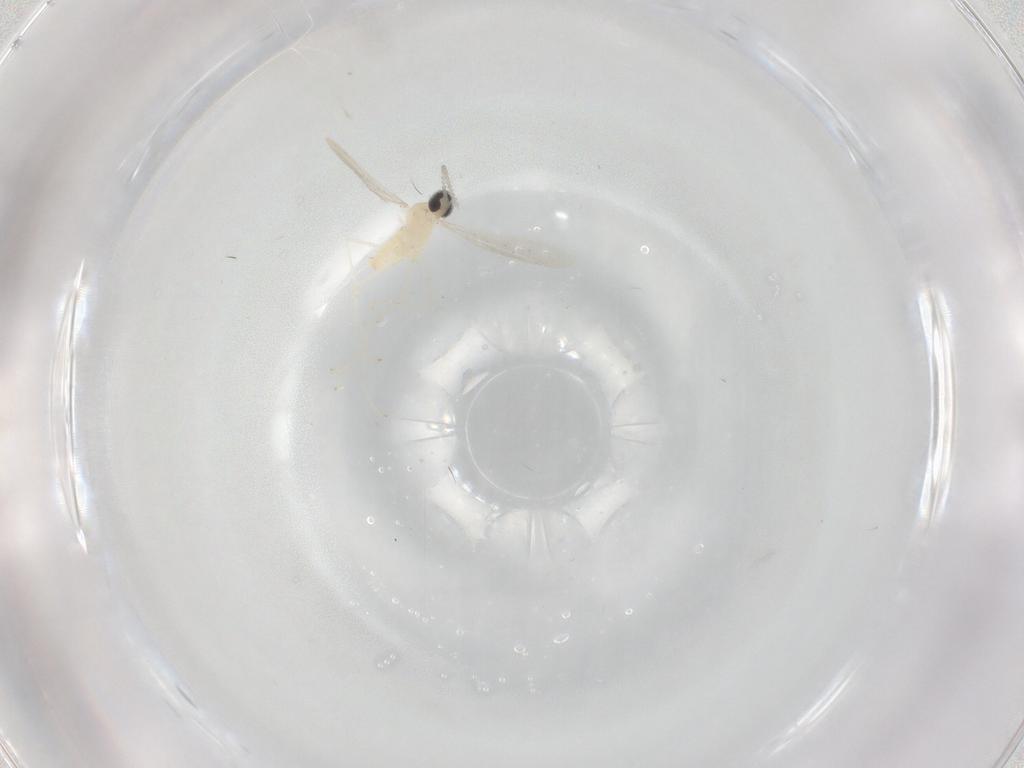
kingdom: Animalia
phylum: Arthropoda
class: Insecta
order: Diptera
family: Cecidomyiidae
